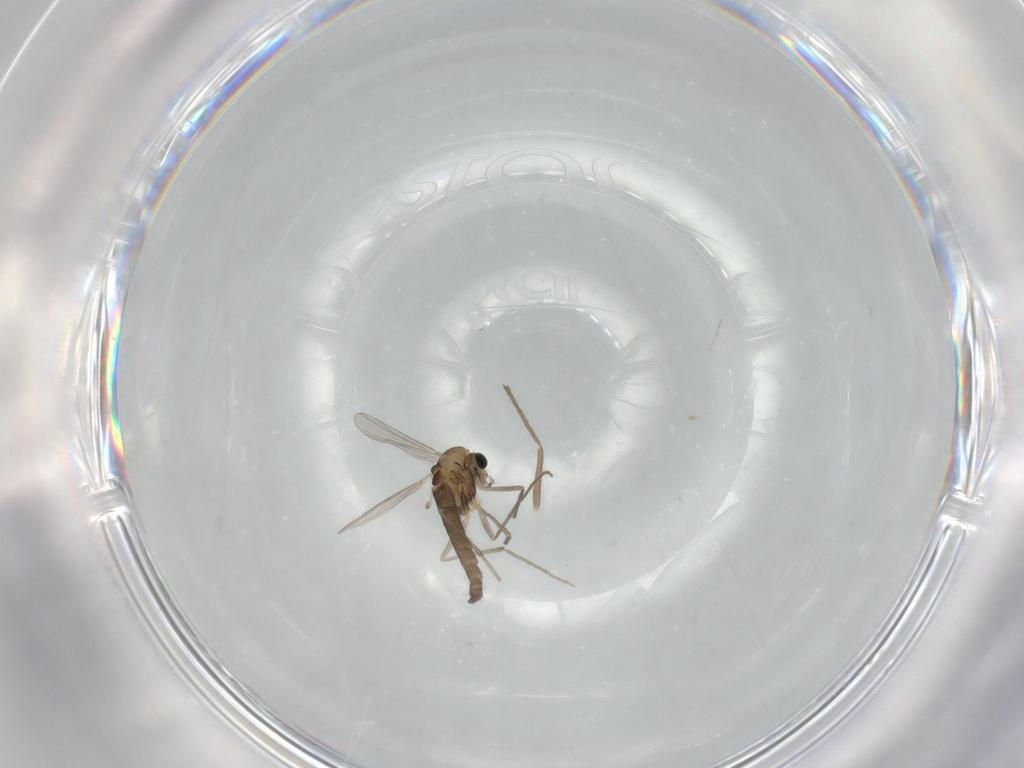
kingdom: Animalia
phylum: Arthropoda
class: Insecta
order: Diptera
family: Chironomidae
